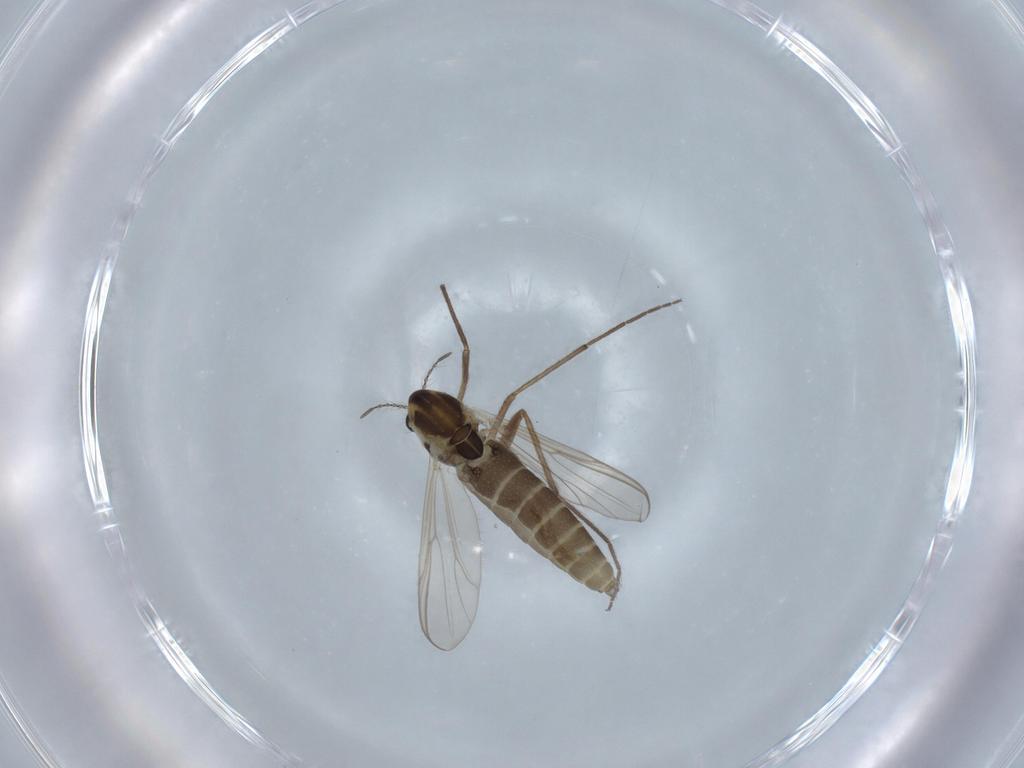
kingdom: Animalia
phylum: Arthropoda
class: Insecta
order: Diptera
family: Chironomidae
